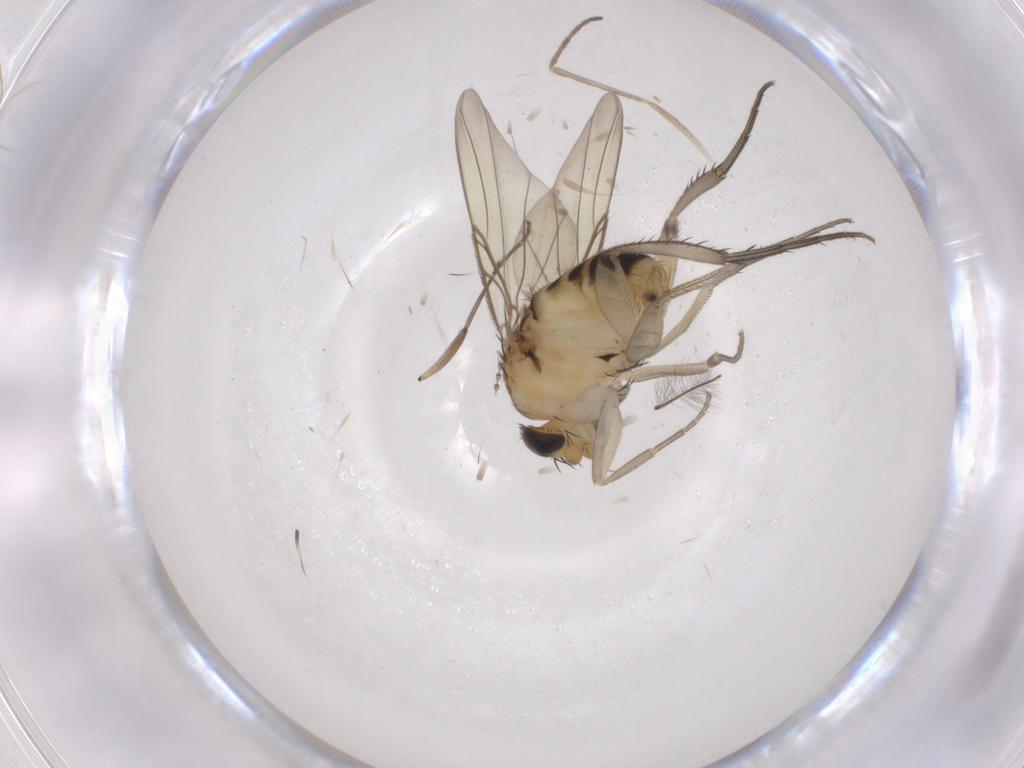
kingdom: Animalia
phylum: Arthropoda
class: Insecta
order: Diptera
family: Phoridae
